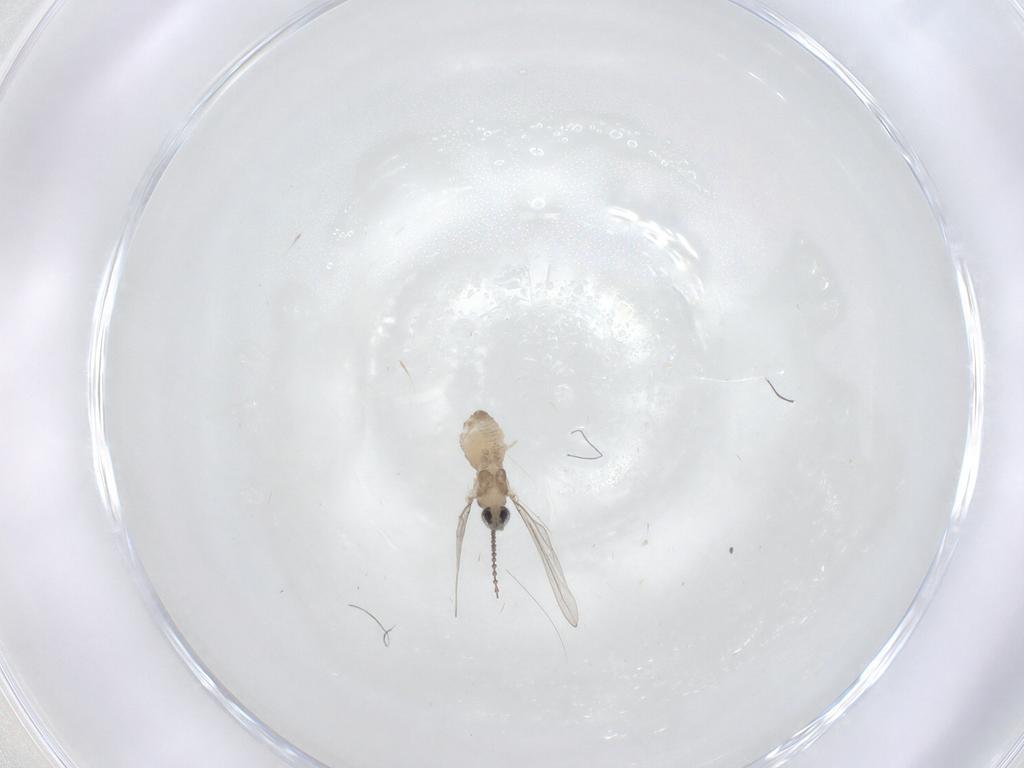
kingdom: Animalia
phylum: Arthropoda
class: Insecta
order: Diptera
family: Cecidomyiidae
